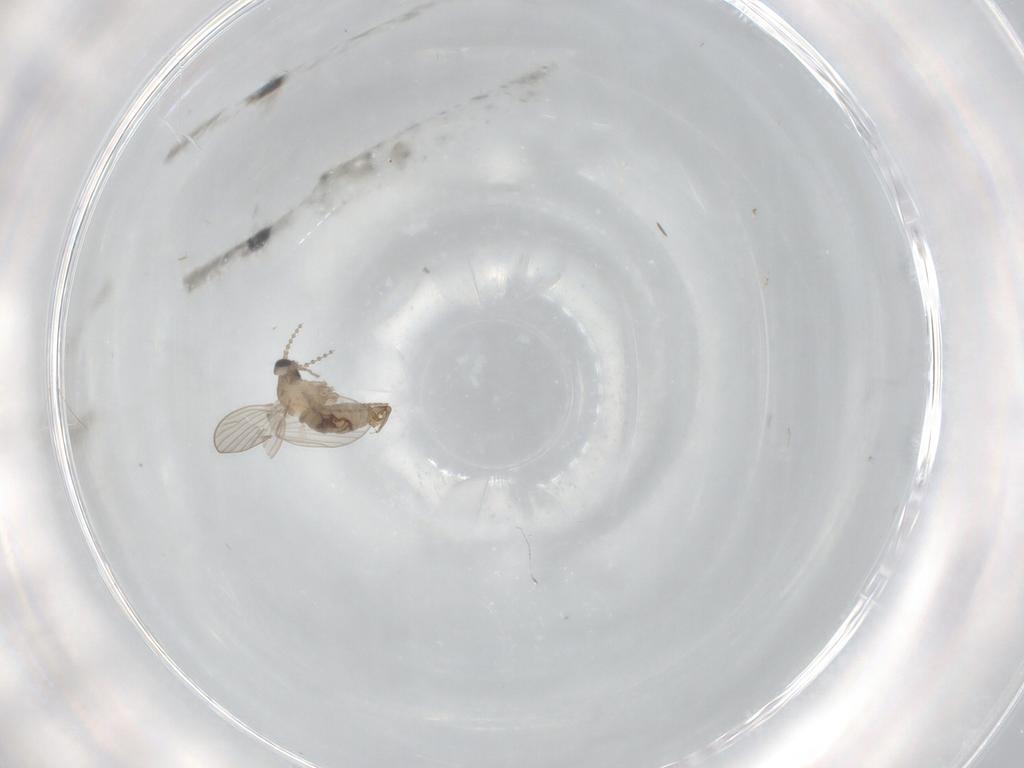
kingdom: Animalia
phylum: Arthropoda
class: Insecta
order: Diptera
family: Psychodidae
